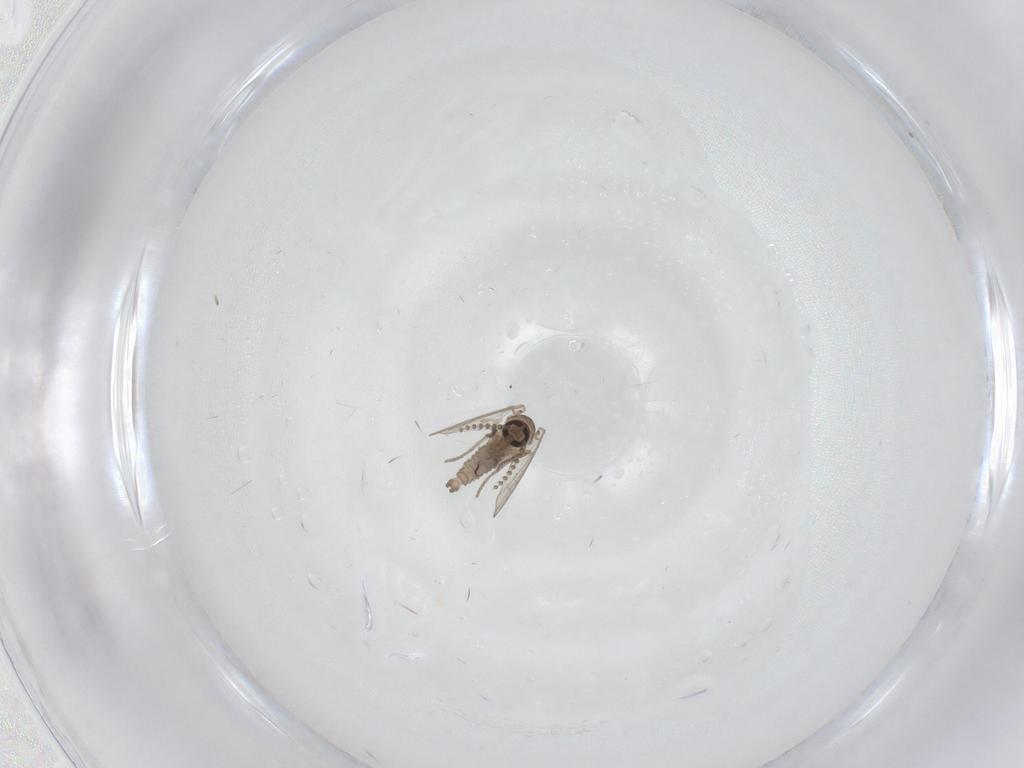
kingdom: Animalia
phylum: Arthropoda
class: Insecta
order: Diptera
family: Psychodidae
